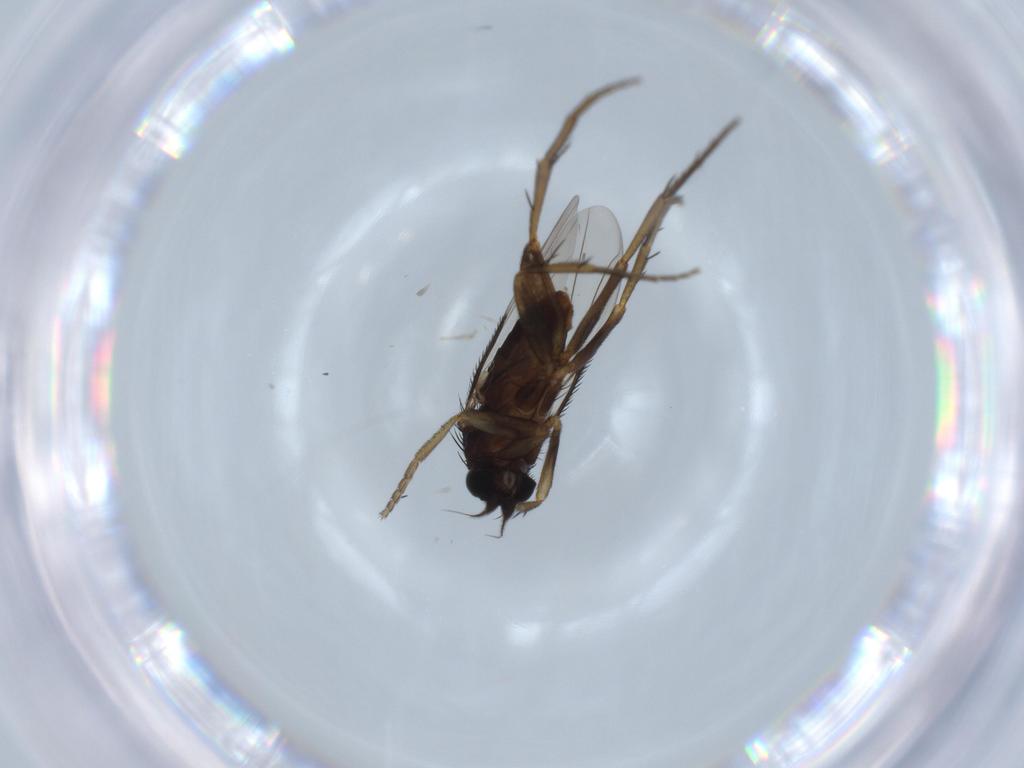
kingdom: Animalia
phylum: Arthropoda
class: Insecta
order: Diptera
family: Phoridae
